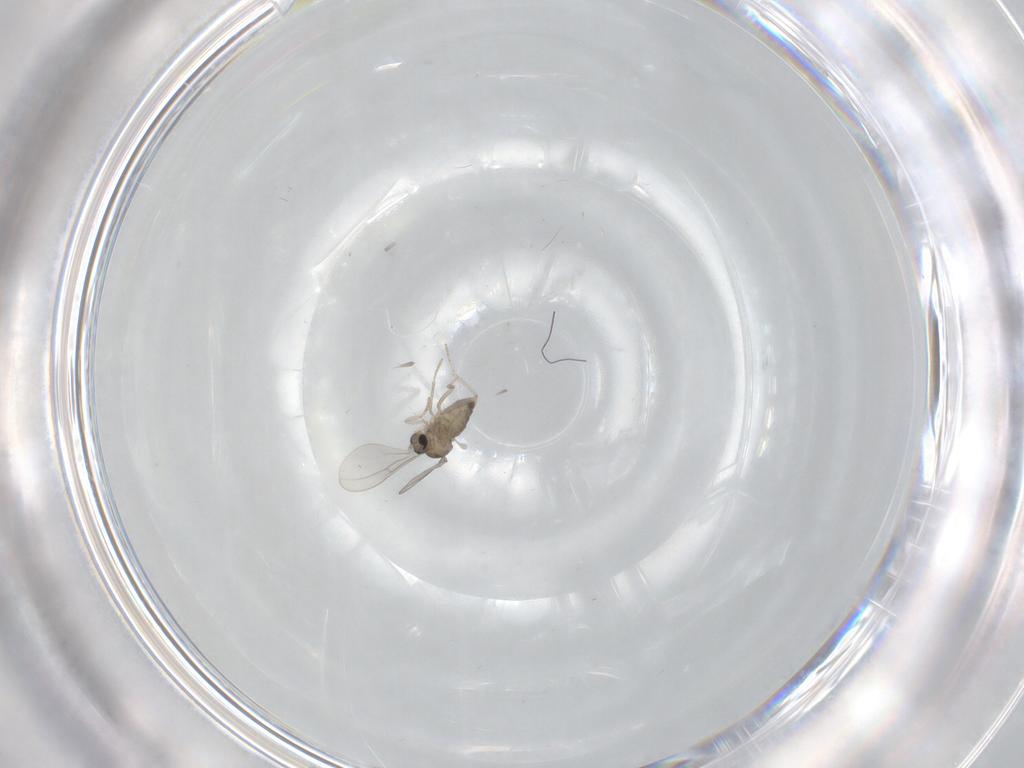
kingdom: Animalia
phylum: Arthropoda
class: Insecta
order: Diptera
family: Cecidomyiidae
